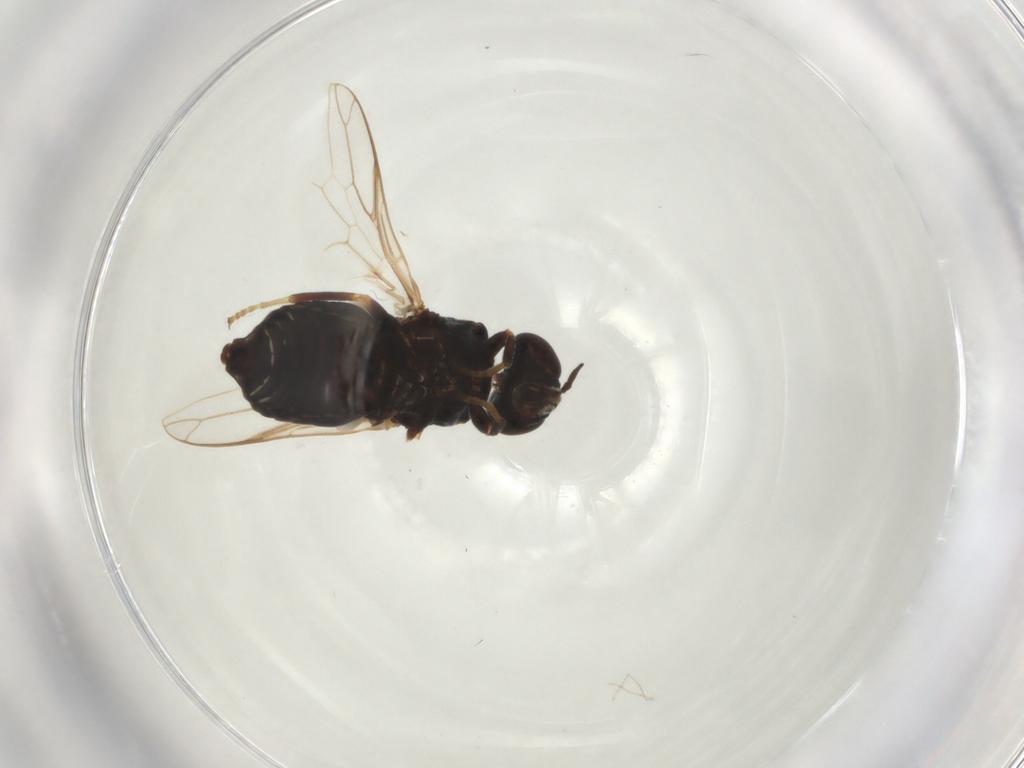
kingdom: Animalia
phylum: Arthropoda
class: Insecta
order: Diptera
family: Scenopinidae
